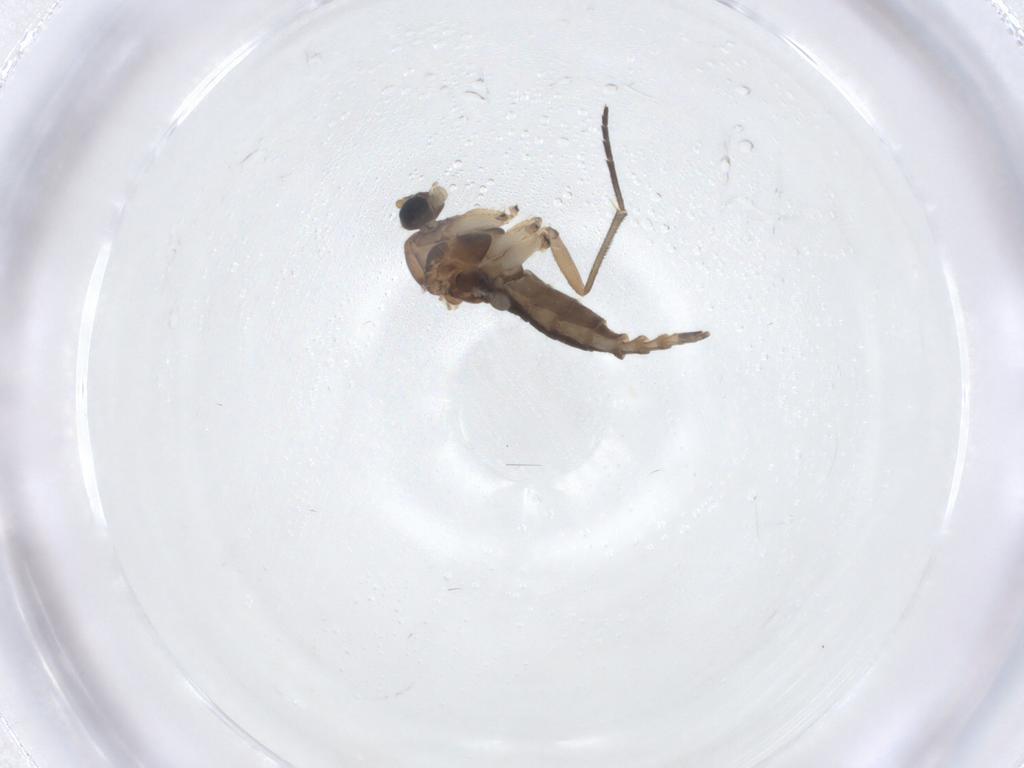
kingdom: Animalia
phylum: Arthropoda
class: Insecta
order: Diptera
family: Sciaridae
